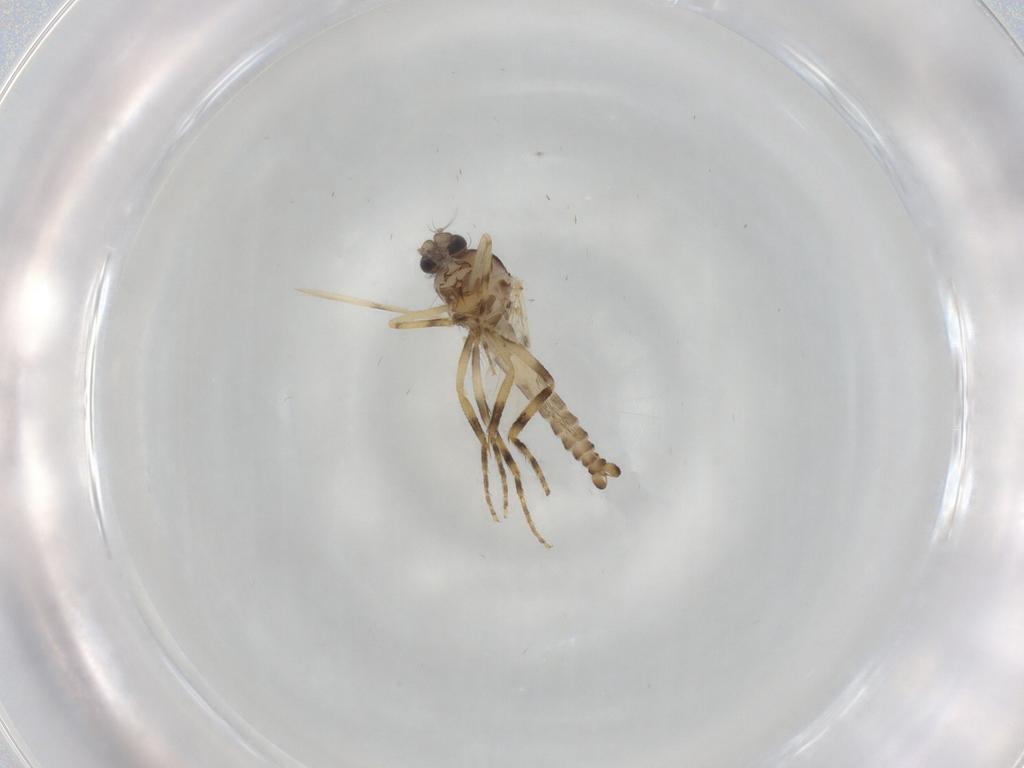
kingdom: Animalia
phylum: Arthropoda
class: Insecta
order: Diptera
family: Ceratopogonidae
